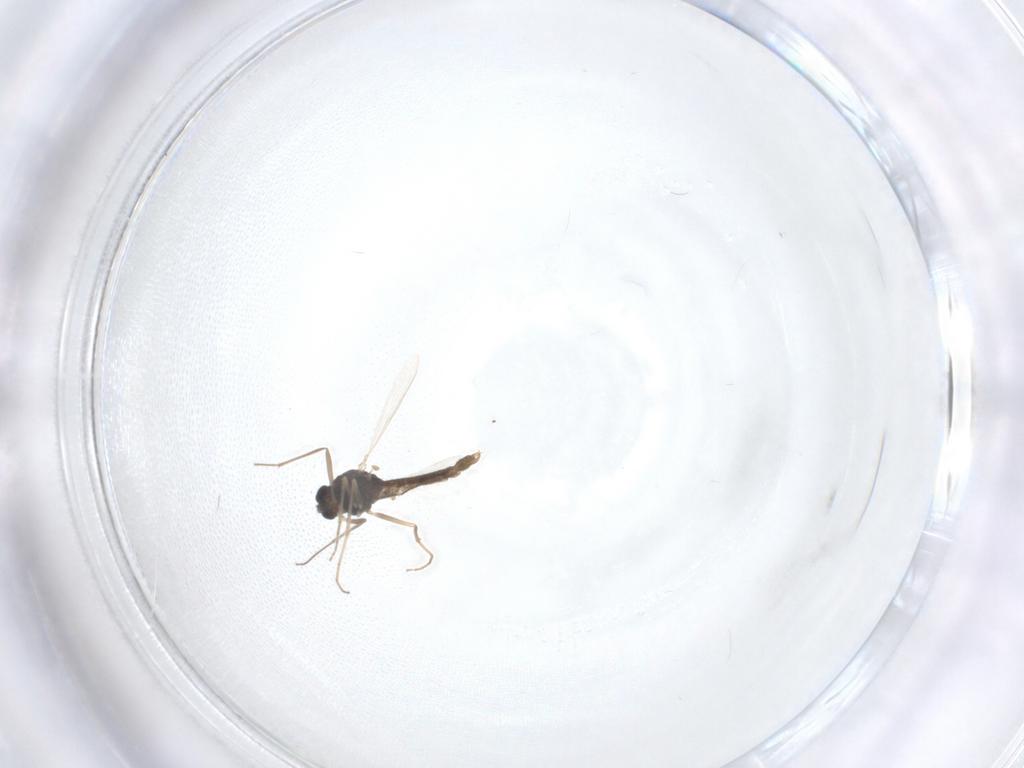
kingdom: Animalia
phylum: Arthropoda
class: Insecta
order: Diptera
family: Chironomidae
